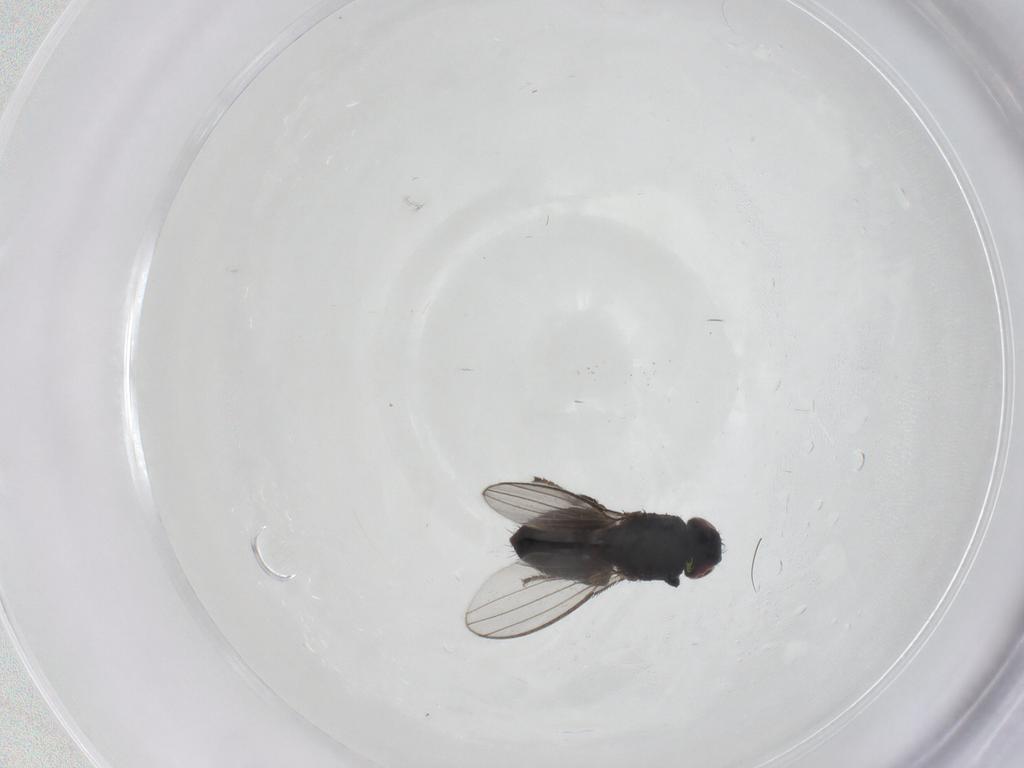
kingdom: Animalia
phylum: Arthropoda
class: Insecta
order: Diptera
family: Milichiidae
